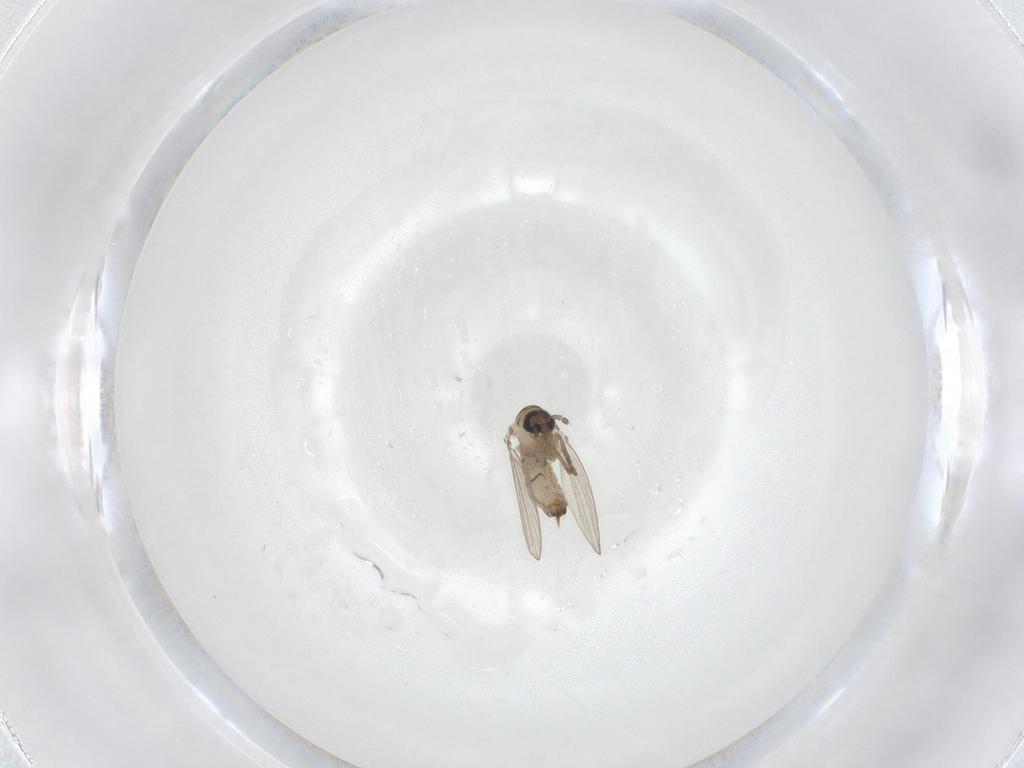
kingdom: Animalia
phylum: Arthropoda
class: Insecta
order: Diptera
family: Psychodidae
